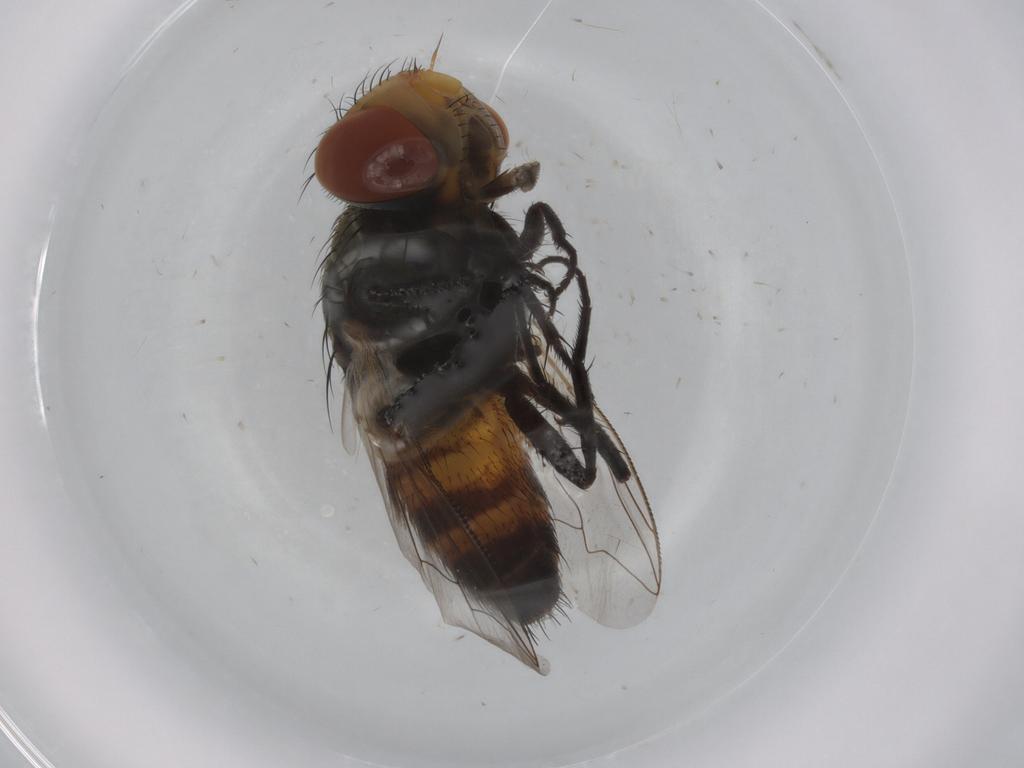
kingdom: Animalia
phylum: Arthropoda
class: Insecta
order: Diptera
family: Sarcophagidae
